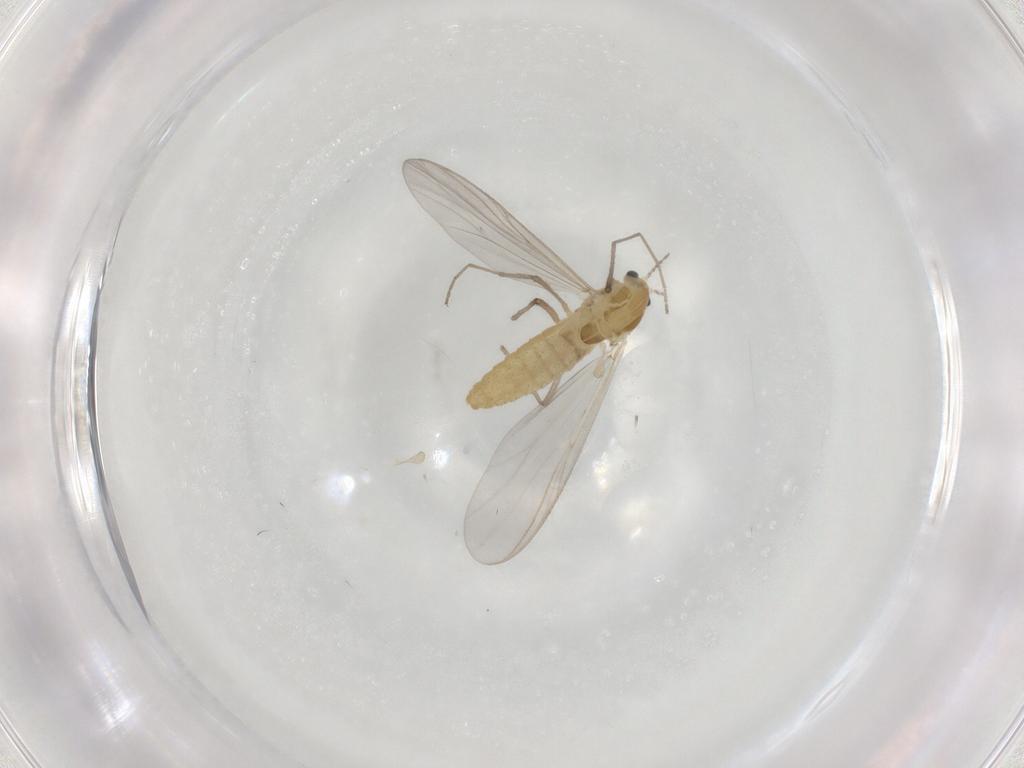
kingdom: Animalia
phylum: Arthropoda
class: Insecta
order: Diptera
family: Chironomidae
